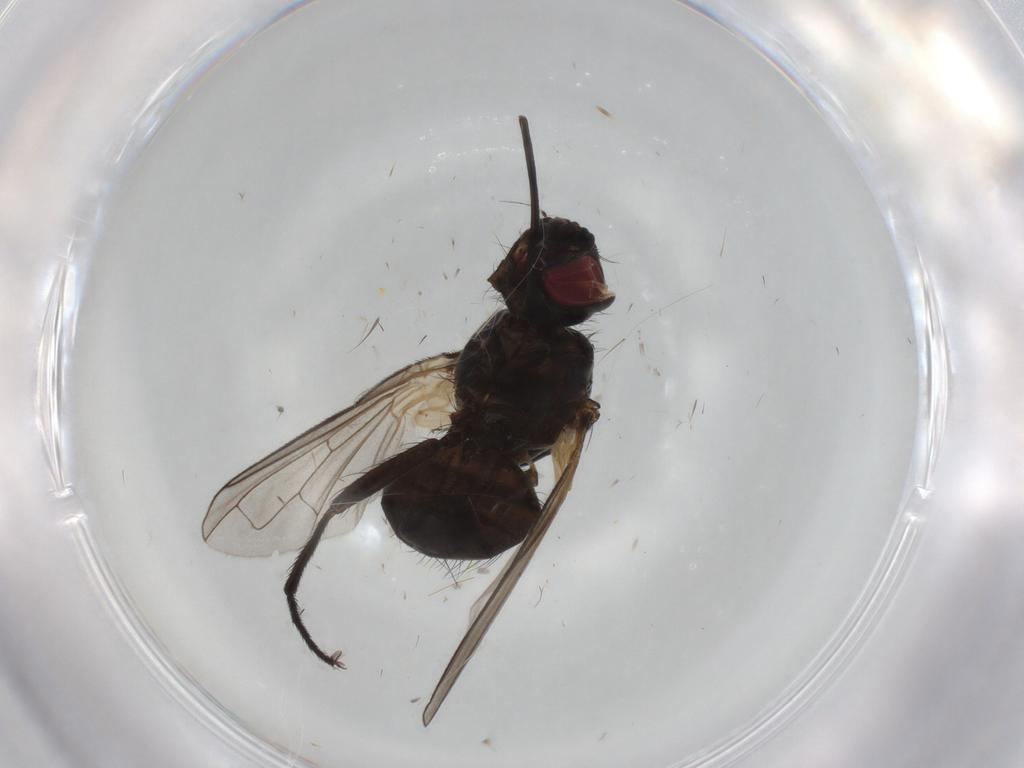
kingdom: Animalia
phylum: Arthropoda
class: Insecta
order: Diptera
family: Tachinidae
